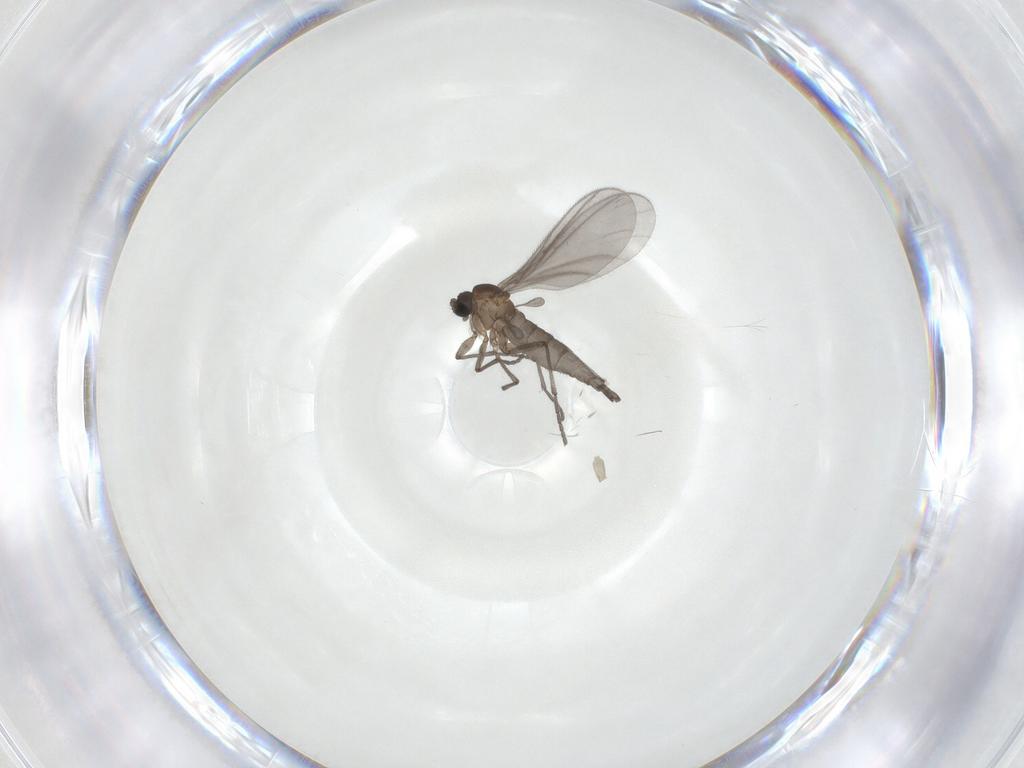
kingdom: Animalia
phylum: Arthropoda
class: Insecta
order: Diptera
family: Sciaridae
